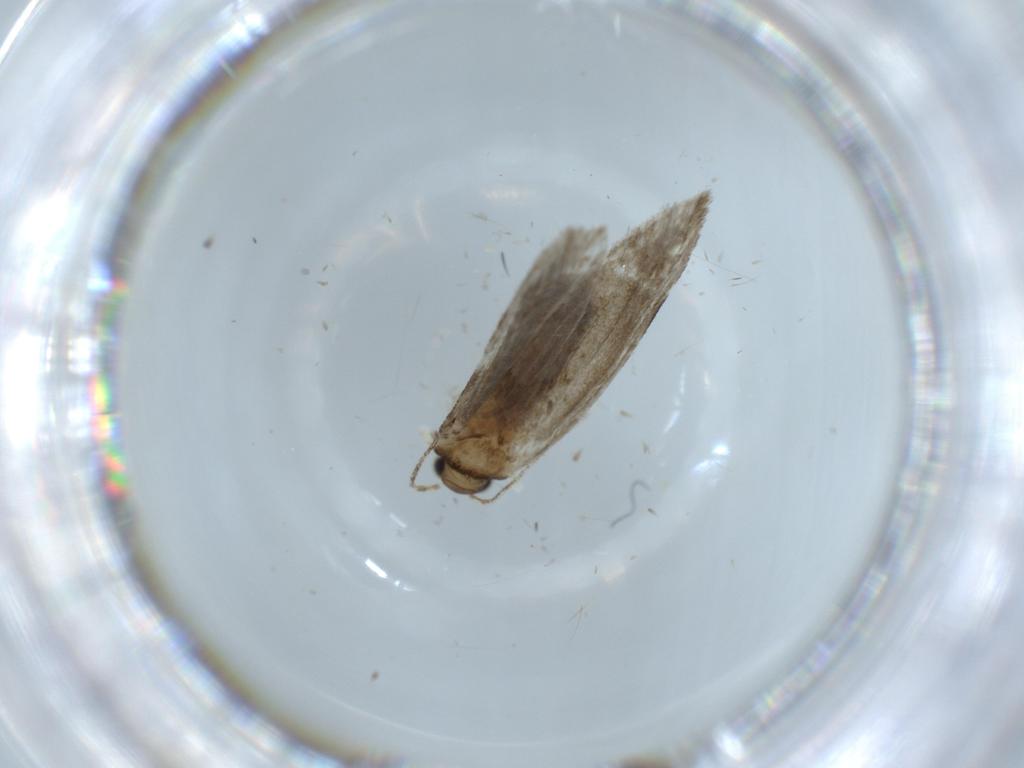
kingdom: Animalia
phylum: Arthropoda
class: Insecta
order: Lepidoptera
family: Tineidae
